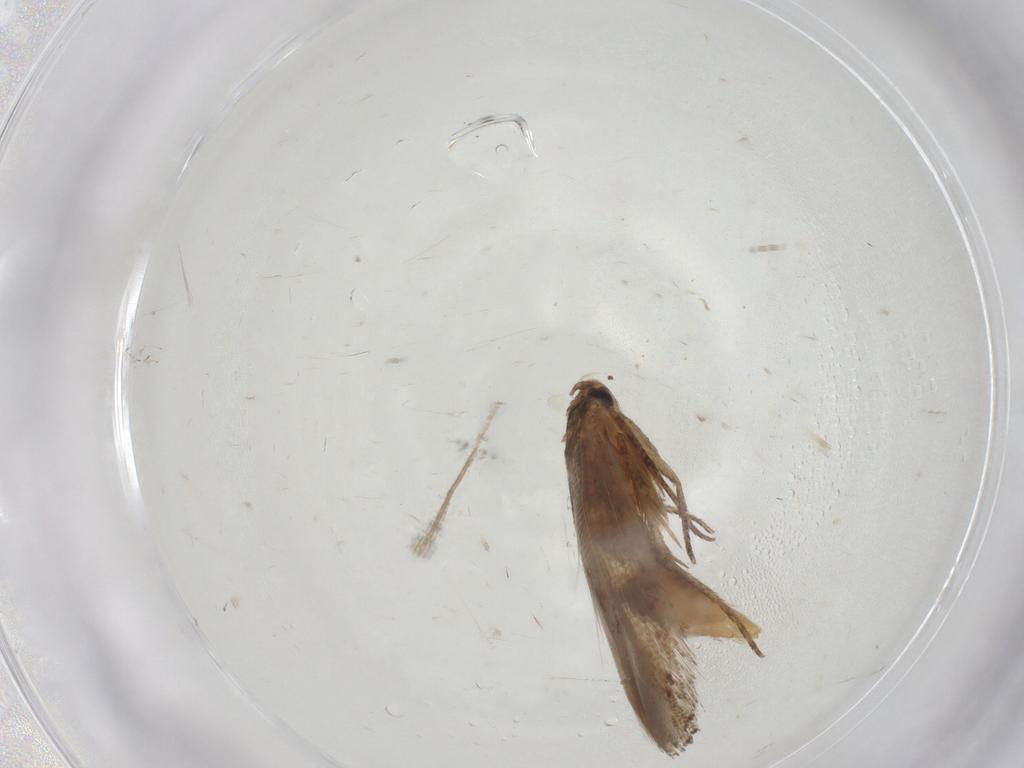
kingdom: Animalia
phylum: Arthropoda
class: Insecta
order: Lepidoptera
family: Momphidae
